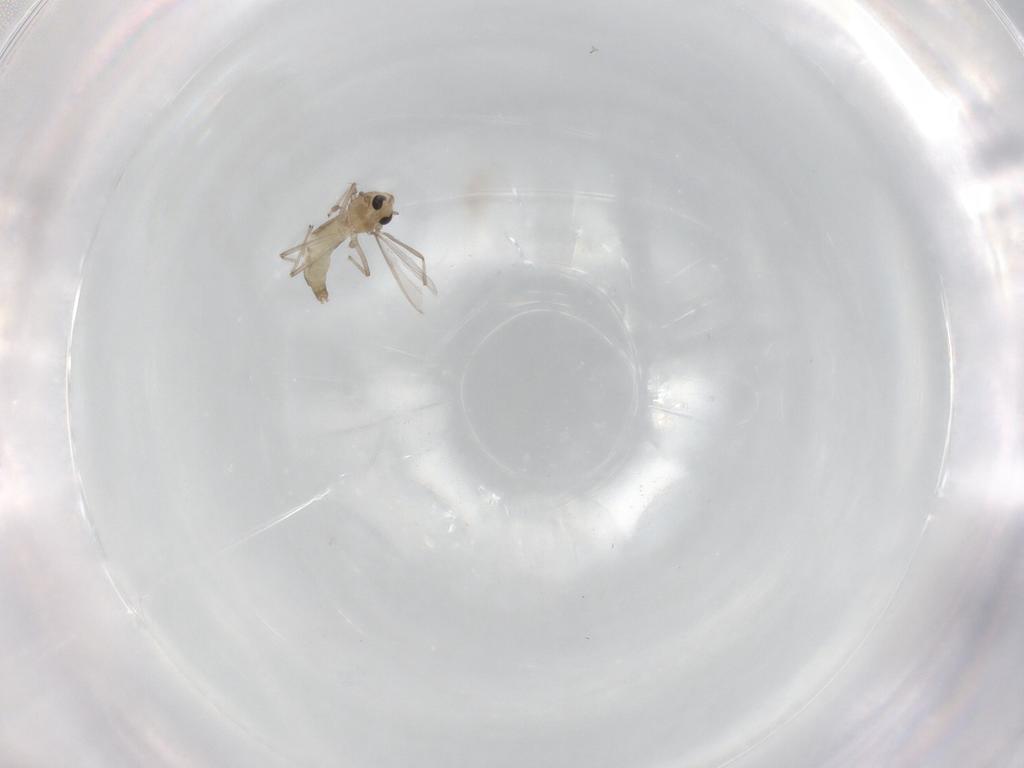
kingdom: Animalia
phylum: Arthropoda
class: Insecta
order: Diptera
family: Chironomidae
